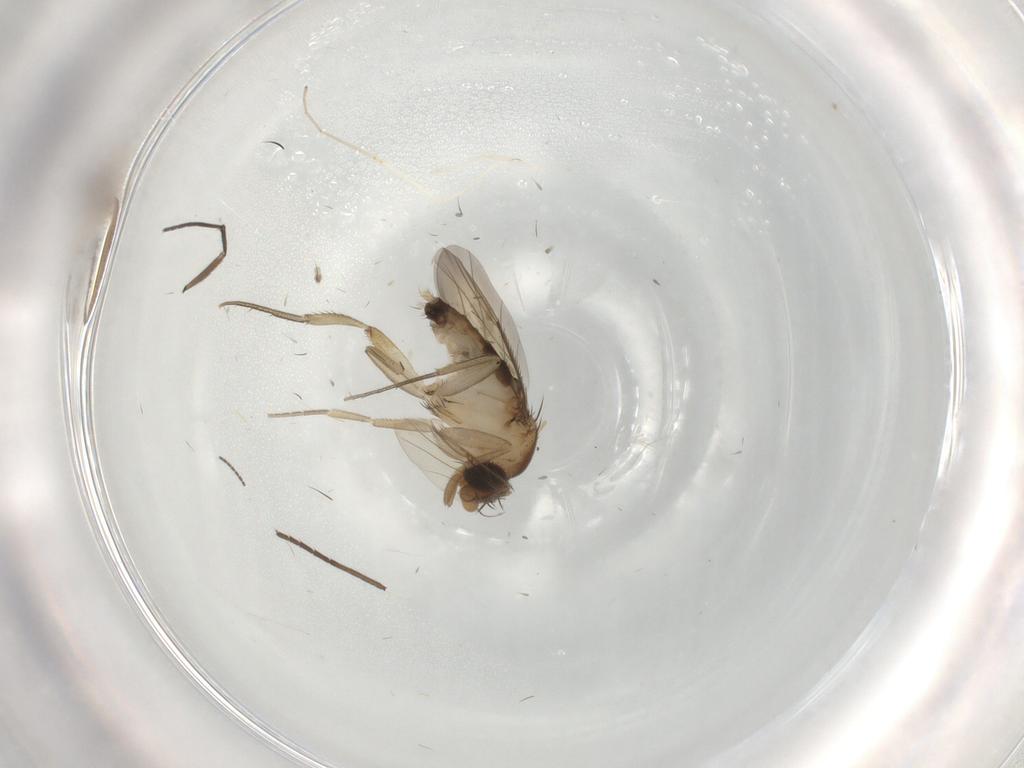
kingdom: Animalia
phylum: Arthropoda
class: Insecta
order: Diptera
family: Phoridae
